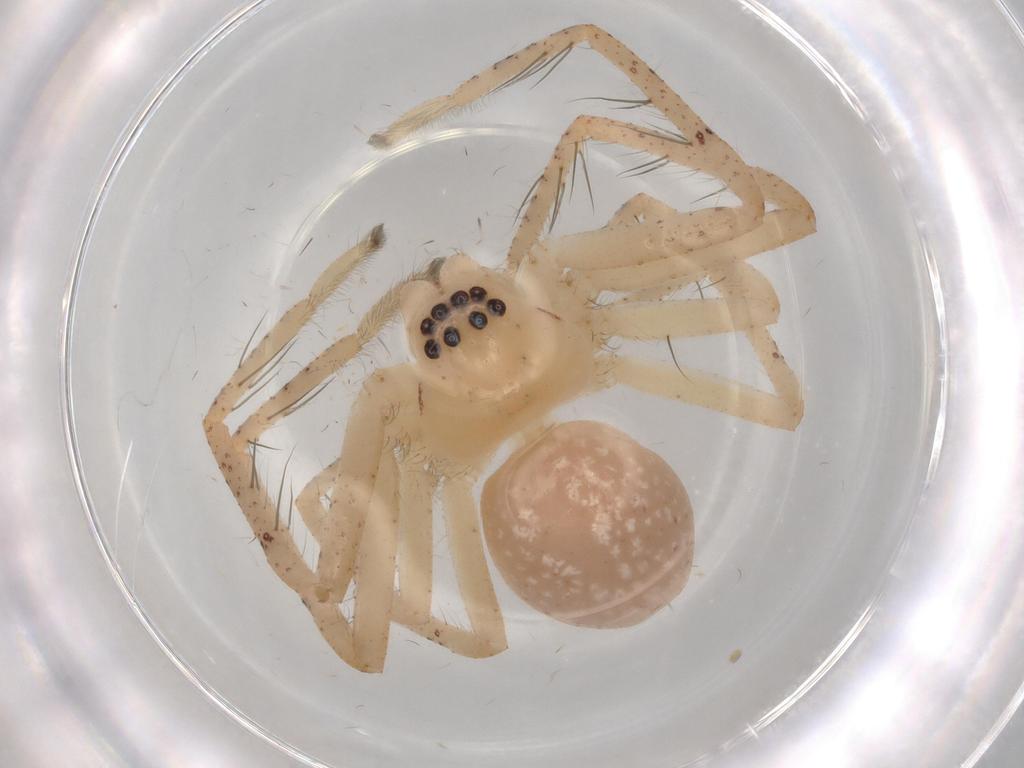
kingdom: Animalia
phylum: Arthropoda
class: Arachnida
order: Araneae
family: Sparassidae
